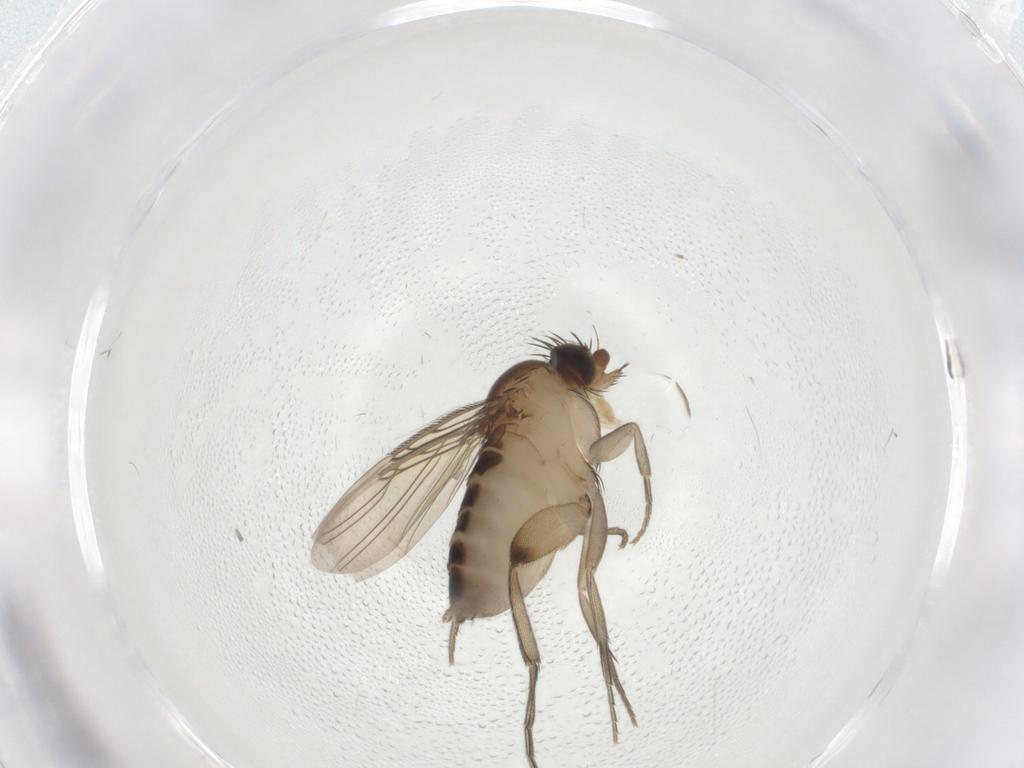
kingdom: Animalia
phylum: Arthropoda
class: Insecta
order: Diptera
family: Phoridae
